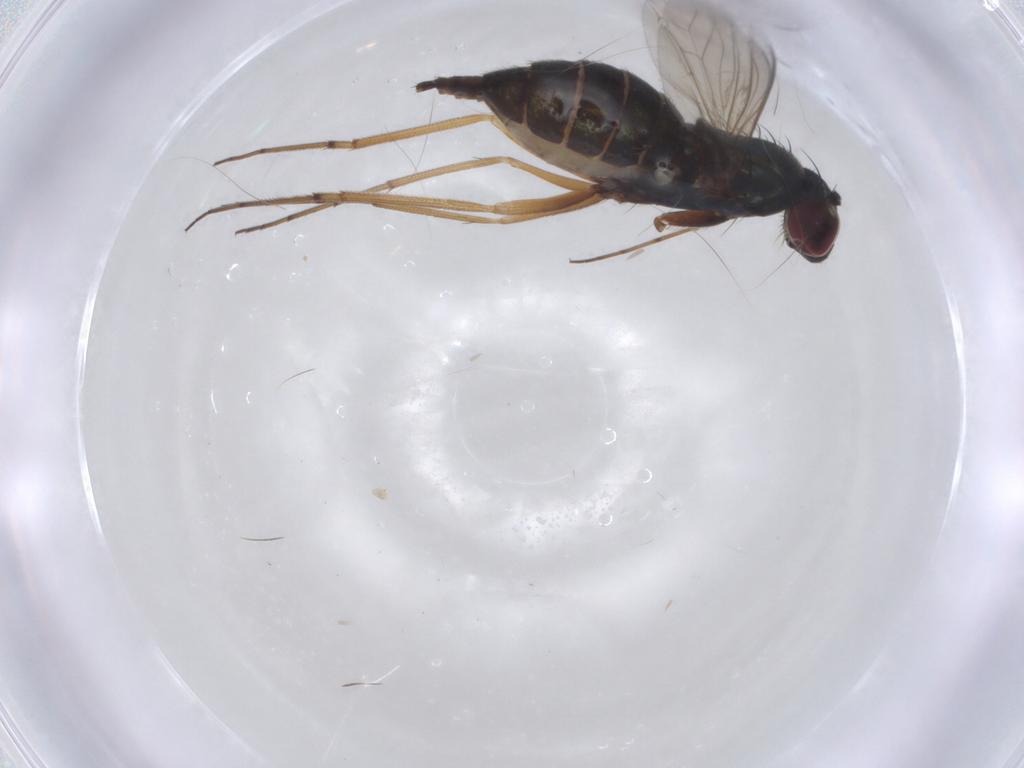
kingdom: Animalia
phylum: Arthropoda
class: Insecta
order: Diptera
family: Dolichopodidae
